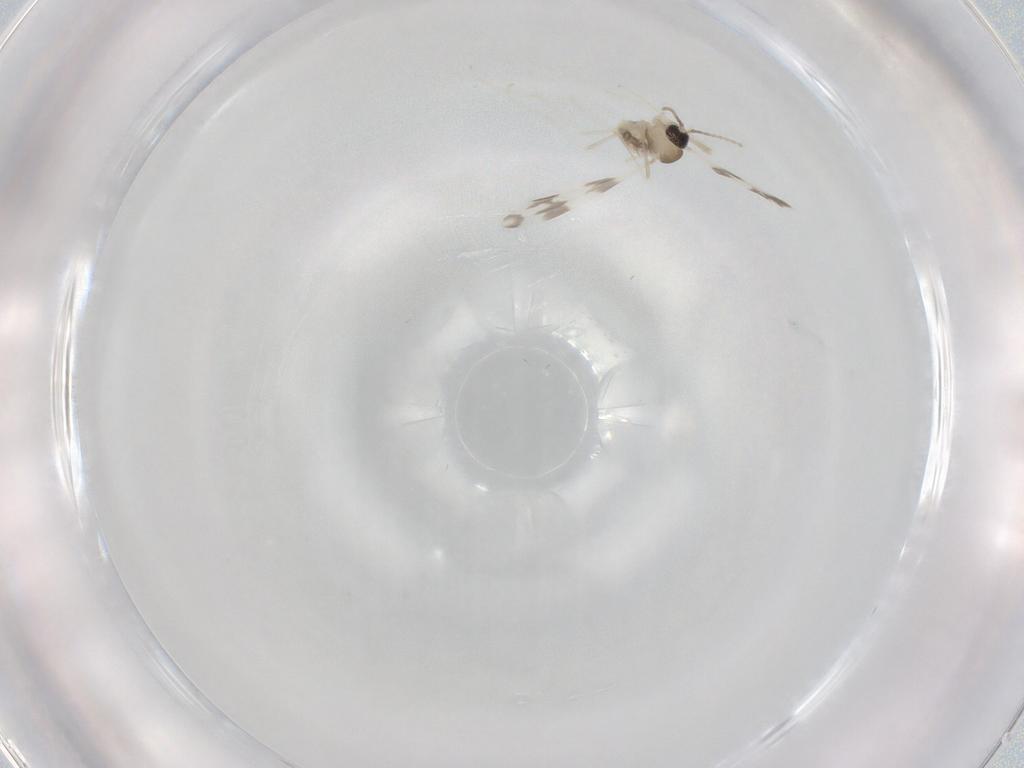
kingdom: Animalia
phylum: Arthropoda
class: Insecta
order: Diptera
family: Cecidomyiidae
